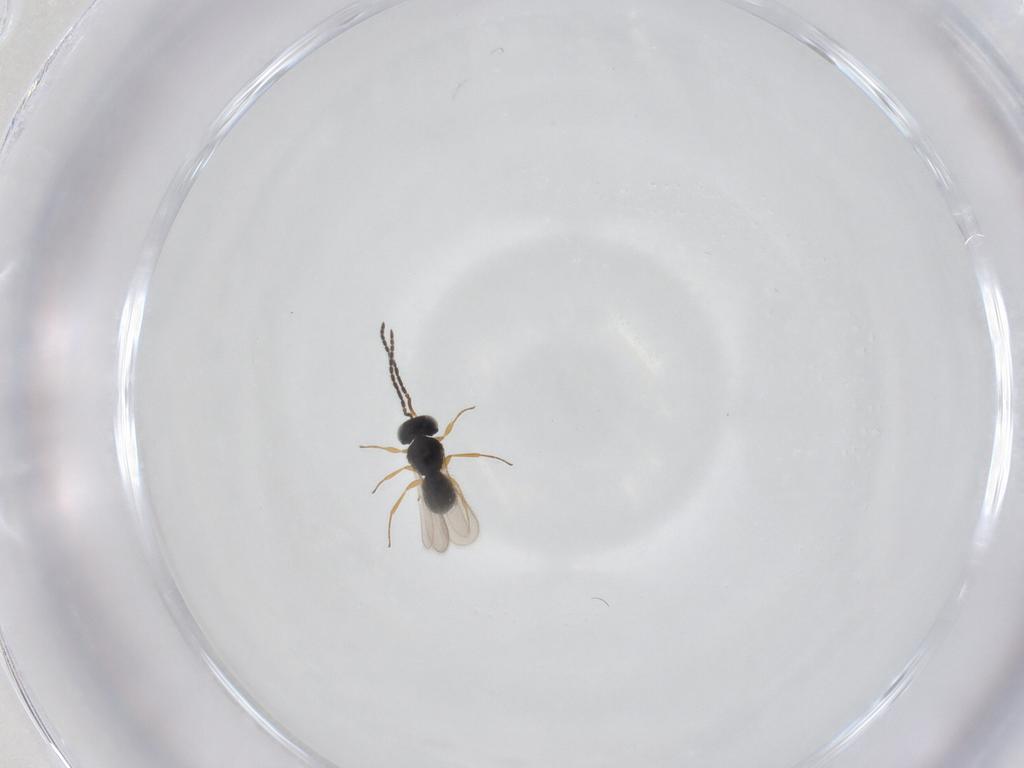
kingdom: Animalia
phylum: Arthropoda
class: Insecta
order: Hymenoptera
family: Scelionidae
